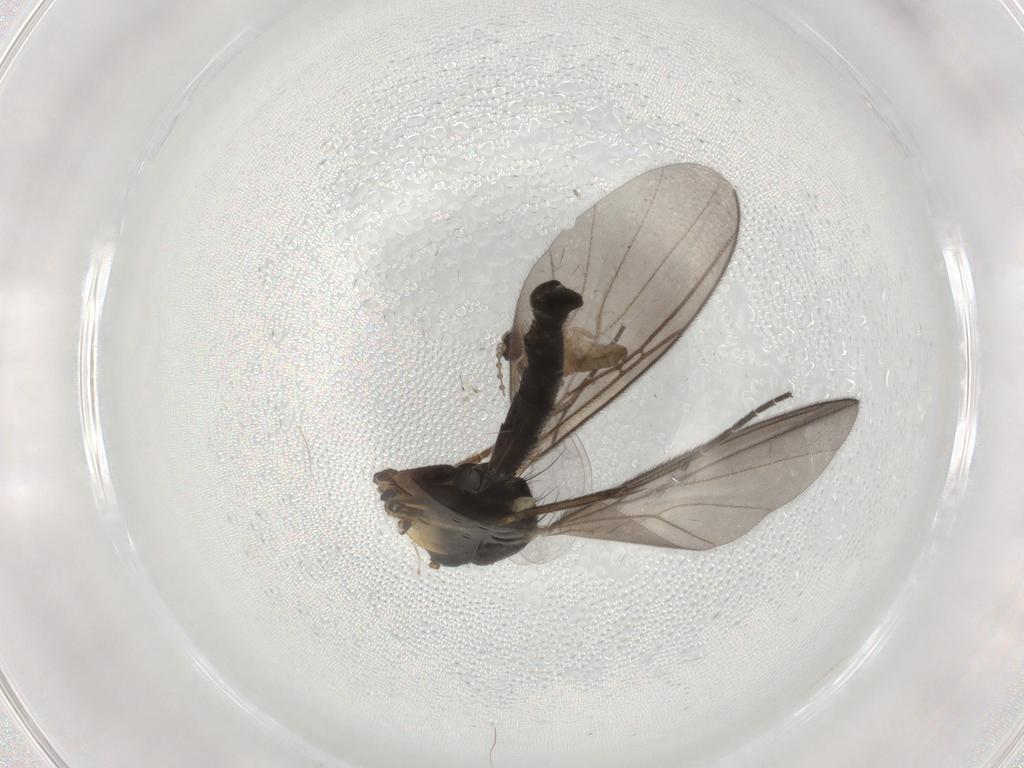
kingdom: Animalia
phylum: Arthropoda
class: Insecta
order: Diptera
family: Mycetophilidae
